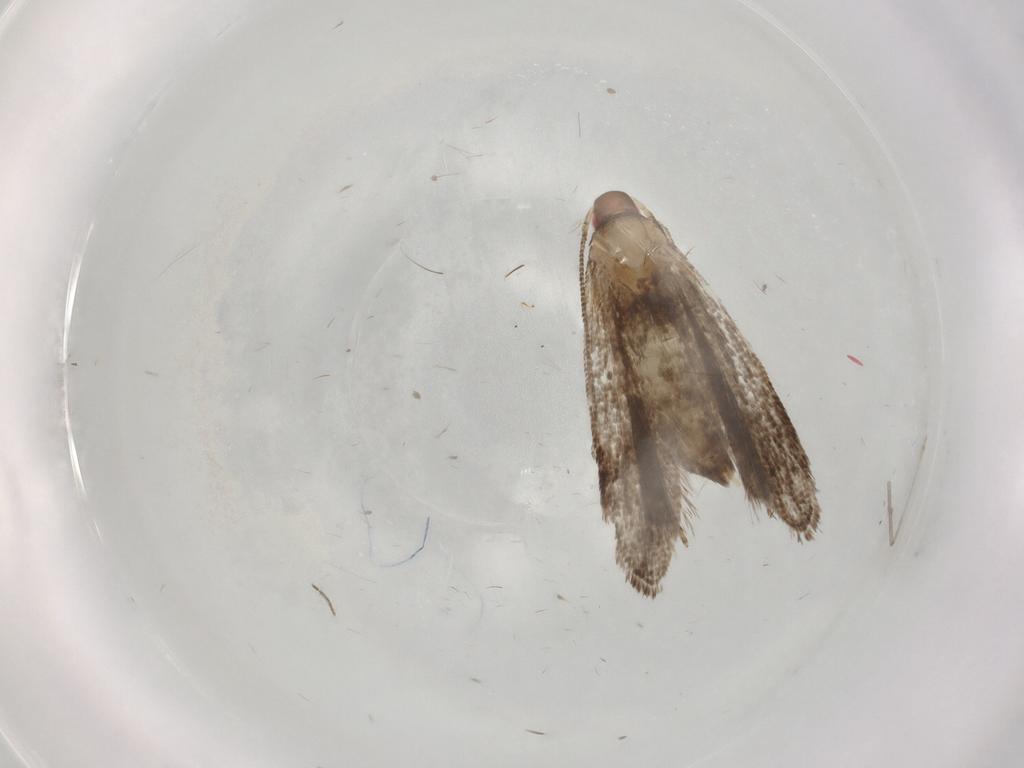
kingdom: Animalia
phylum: Arthropoda
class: Insecta
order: Lepidoptera
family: Gelechiidae
